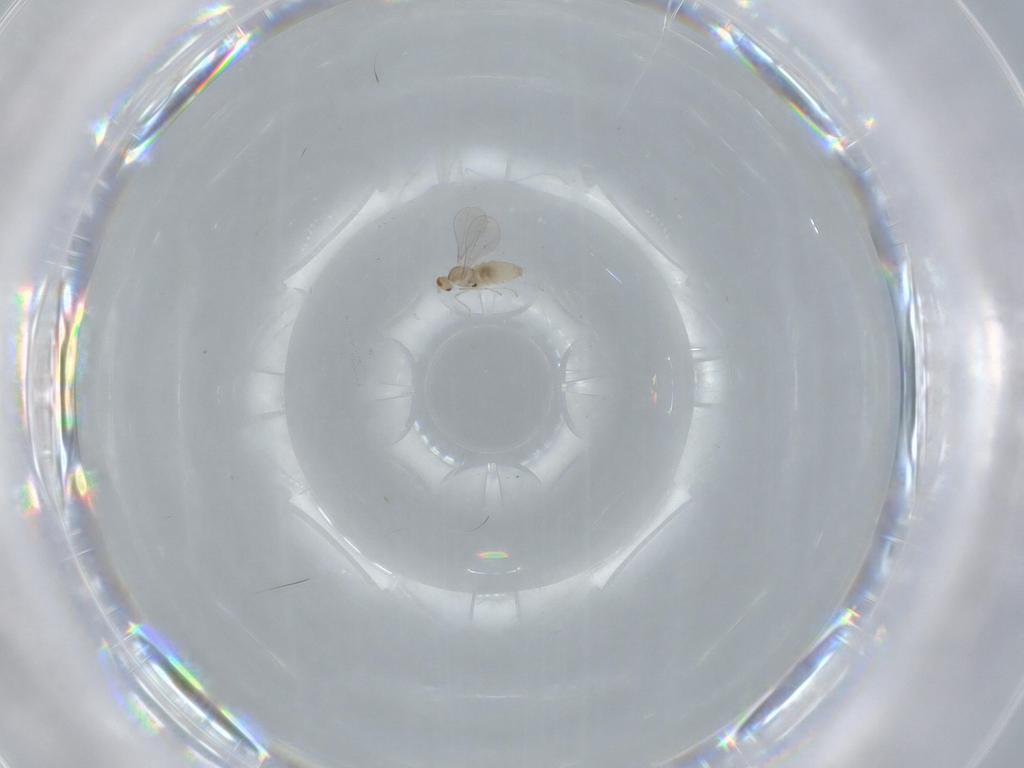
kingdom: Animalia
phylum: Arthropoda
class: Insecta
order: Diptera
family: Cecidomyiidae
